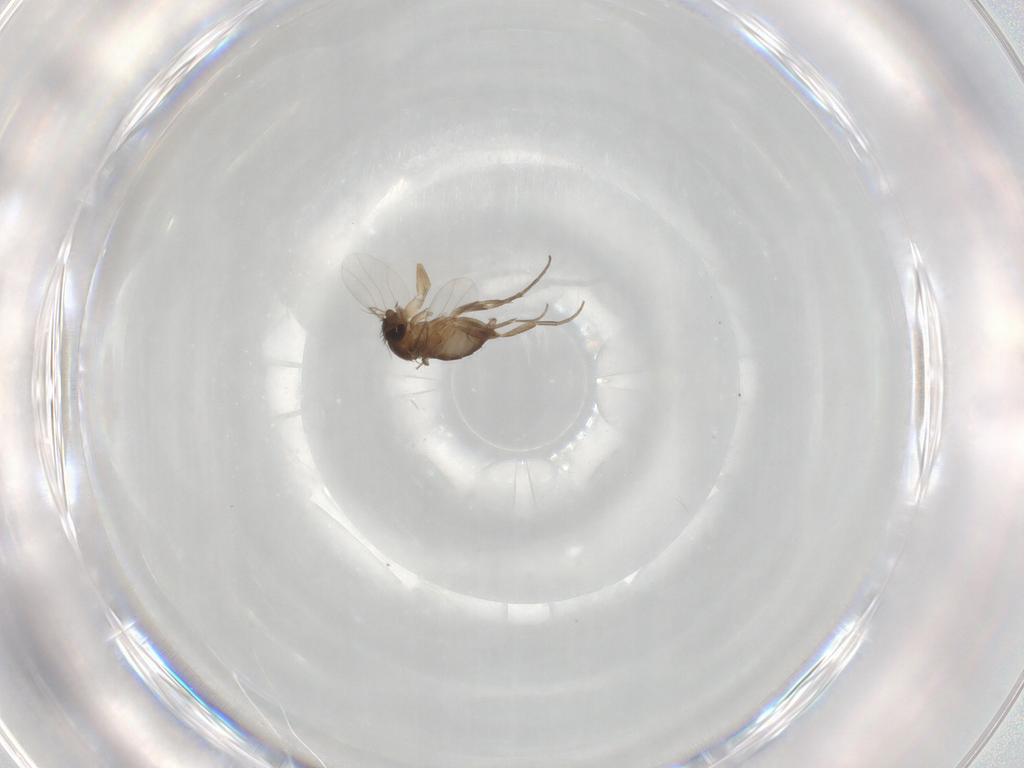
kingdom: Animalia
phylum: Arthropoda
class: Insecta
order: Diptera
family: Phoridae
